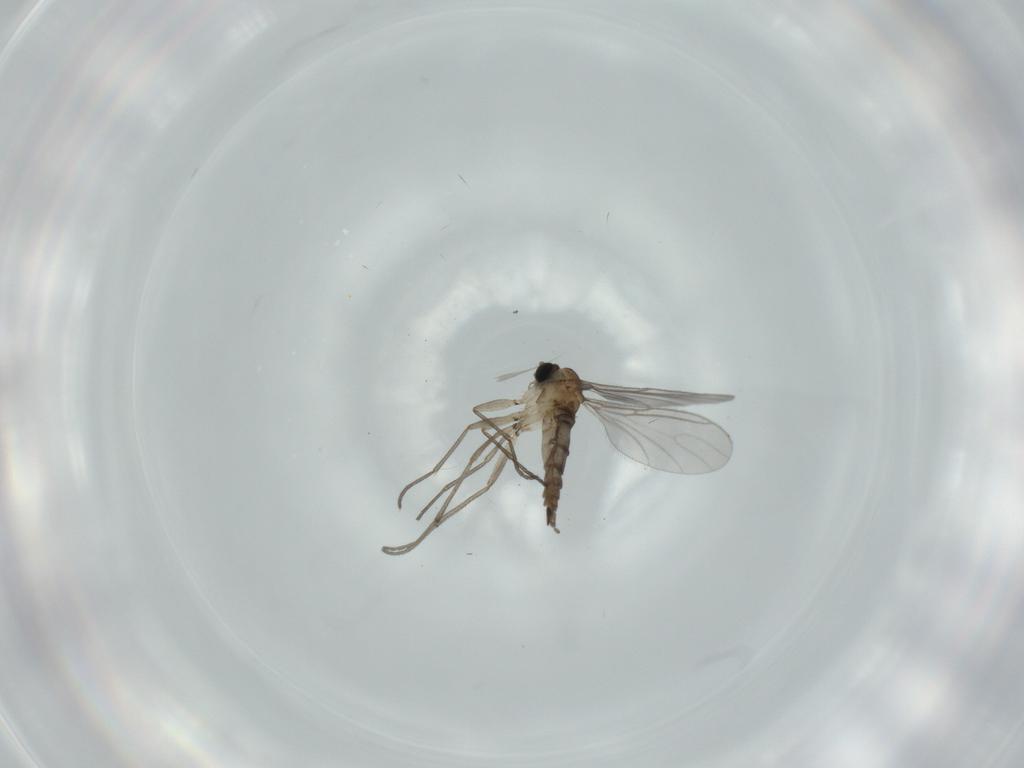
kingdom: Animalia
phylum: Arthropoda
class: Insecta
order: Diptera
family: Sciaridae
